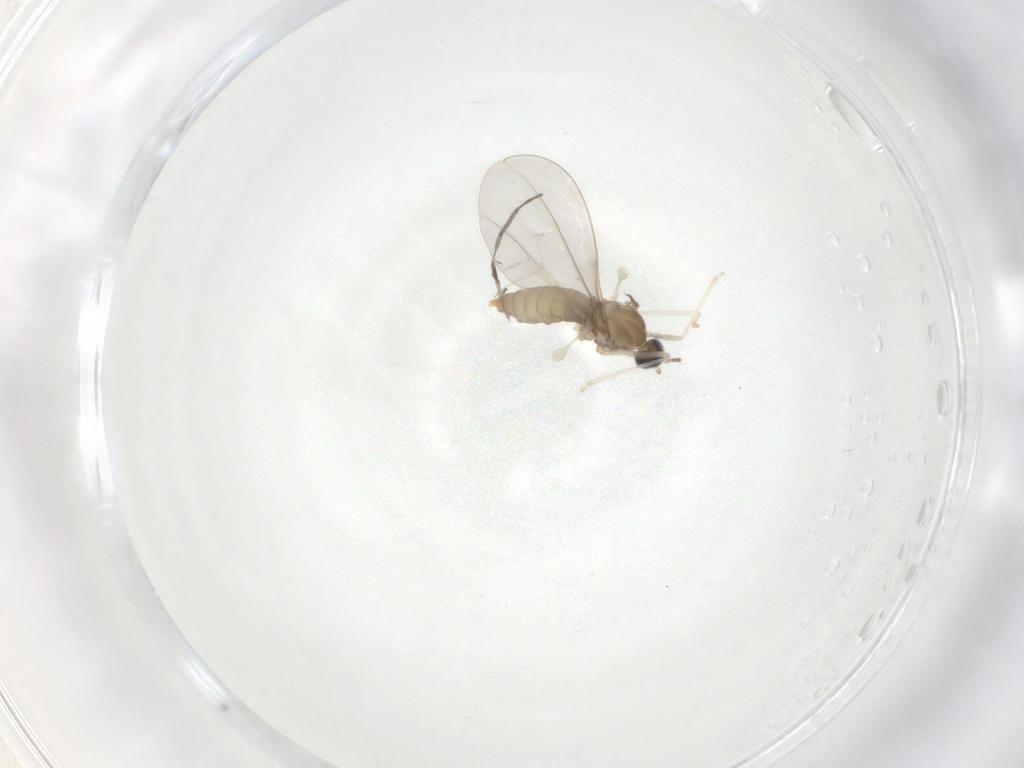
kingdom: Animalia
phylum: Arthropoda
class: Insecta
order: Diptera
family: Cecidomyiidae
